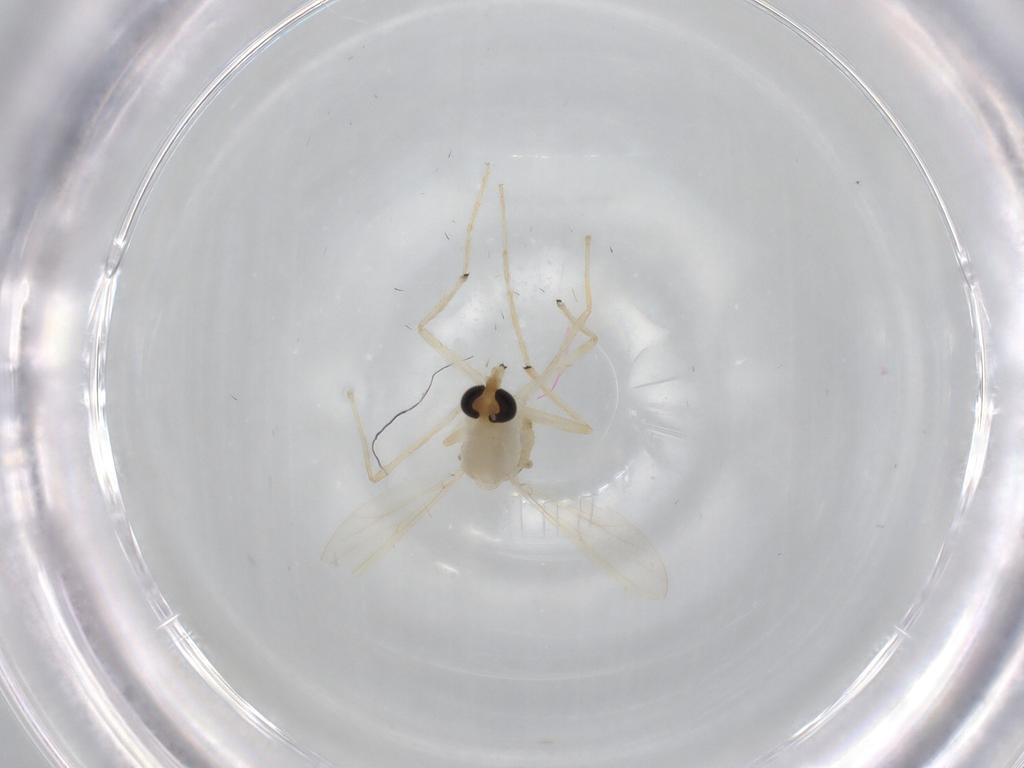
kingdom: Animalia
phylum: Arthropoda
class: Insecta
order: Diptera
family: Chironomidae
